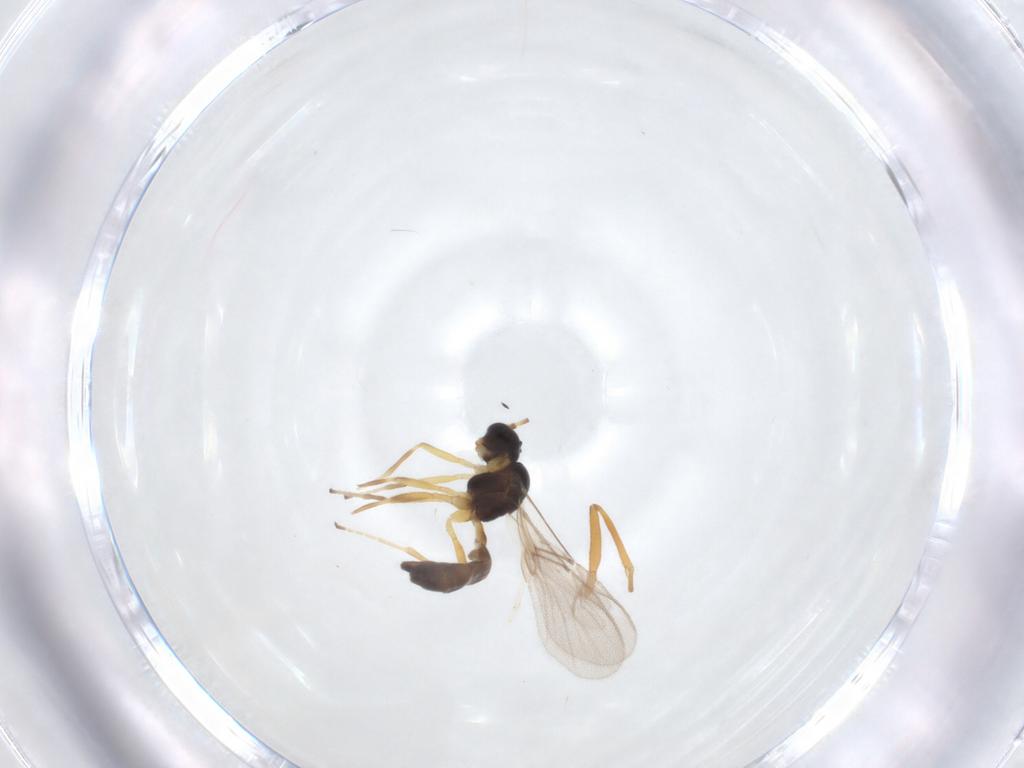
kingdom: Animalia
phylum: Arthropoda
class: Insecta
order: Hymenoptera
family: Braconidae
